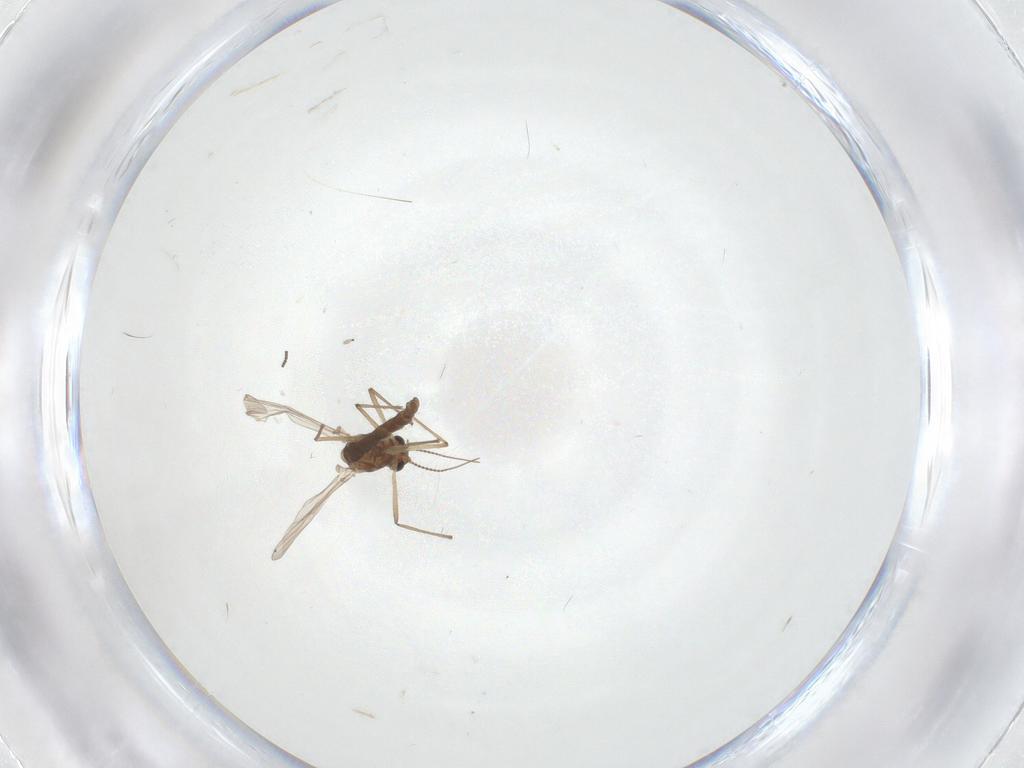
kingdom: Animalia
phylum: Arthropoda
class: Insecta
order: Diptera
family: Chironomidae
